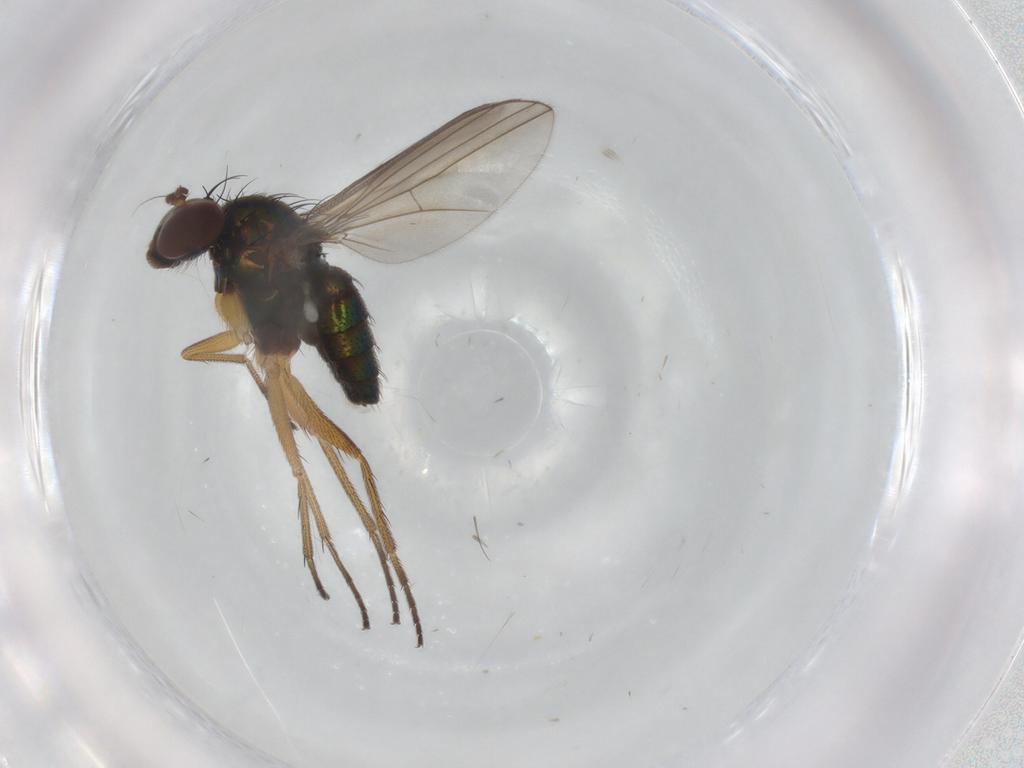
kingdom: Animalia
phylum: Arthropoda
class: Insecta
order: Diptera
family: Dolichopodidae
